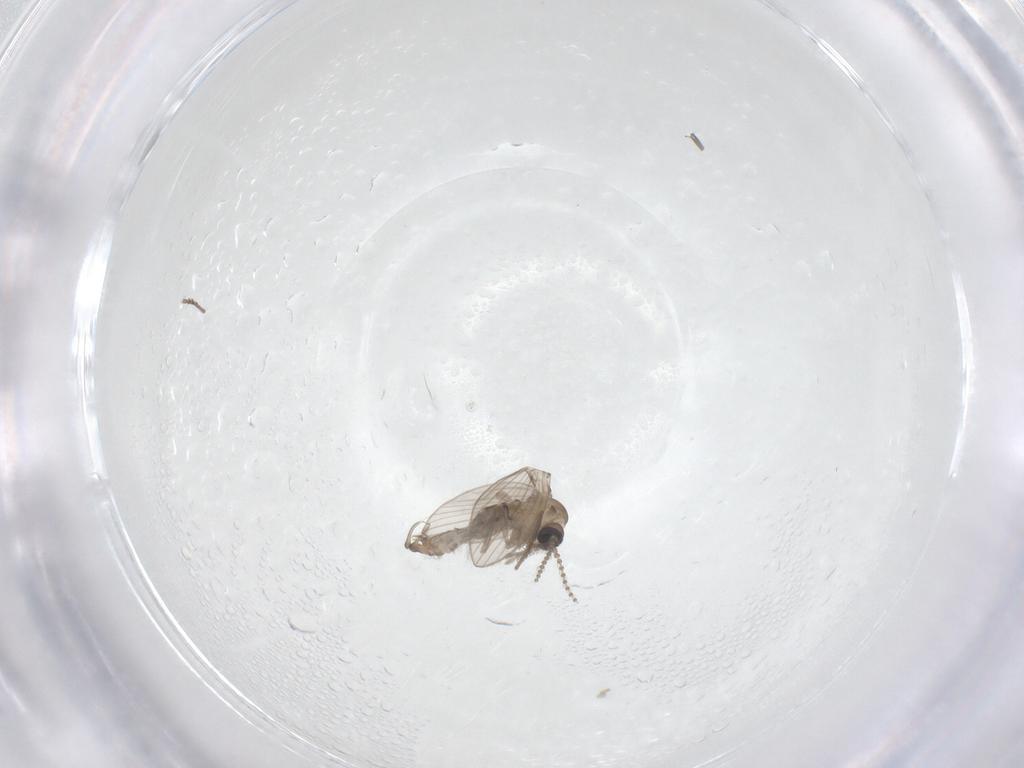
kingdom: Animalia
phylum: Arthropoda
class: Insecta
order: Diptera
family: Psychodidae
